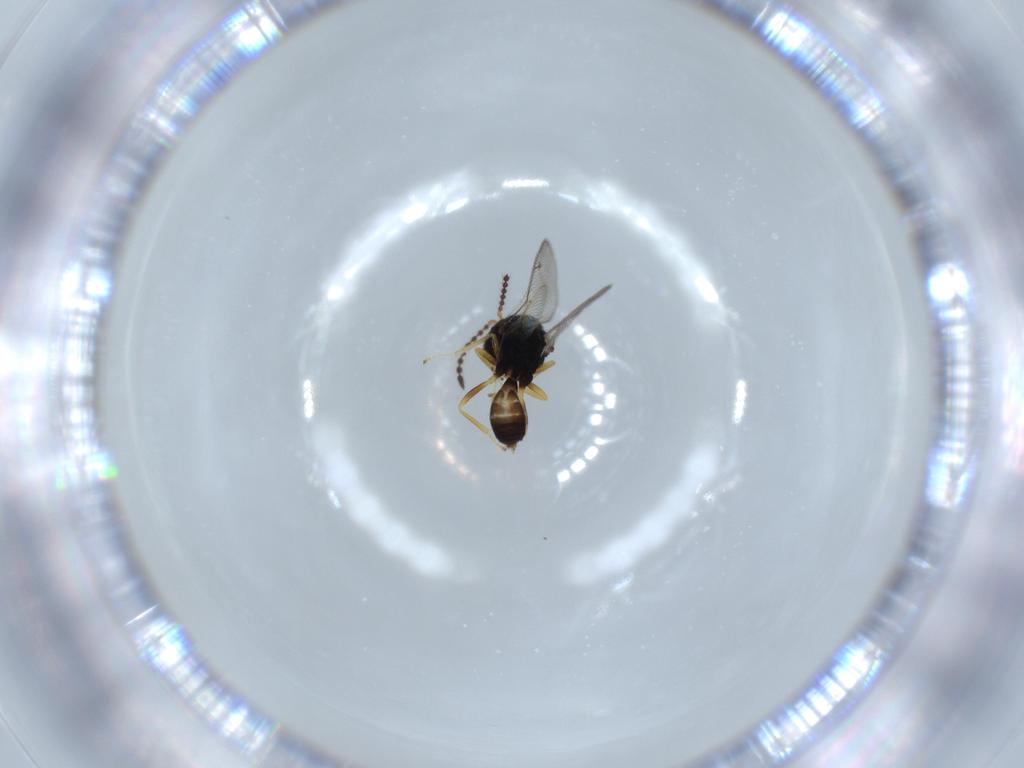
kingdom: Animalia
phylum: Arthropoda
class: Insecta
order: Hymenoptera
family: Pteromalidae
